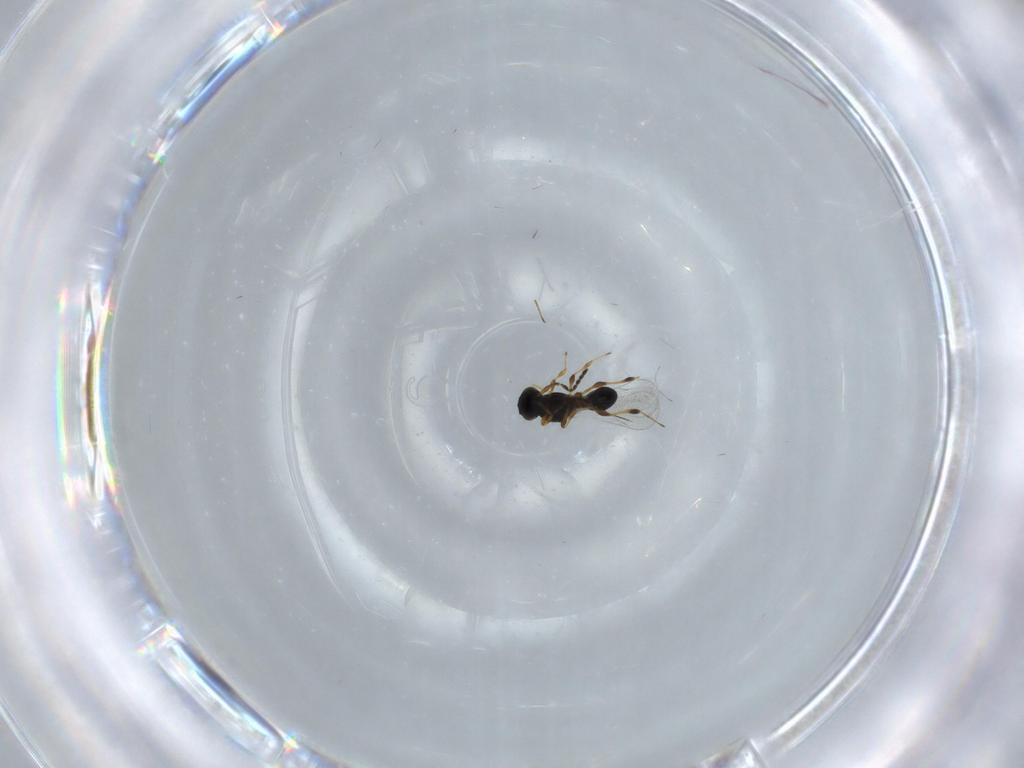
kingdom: Animalia
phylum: Arthropoda
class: Insecta
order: Hymenoptera
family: Platygastridae
